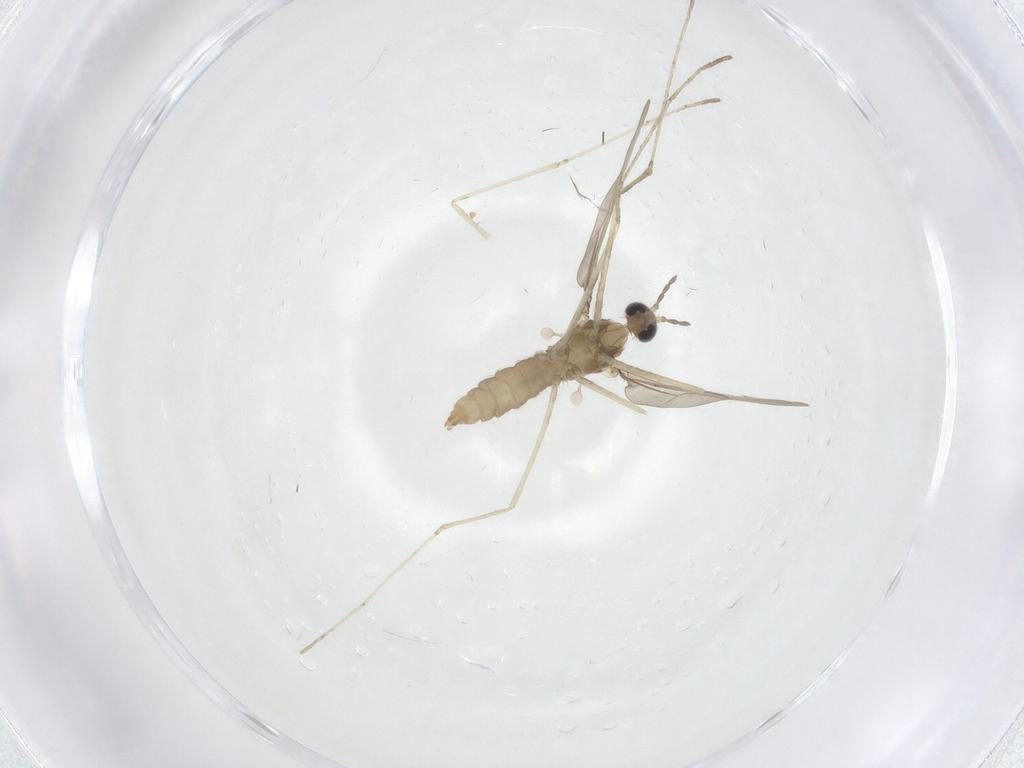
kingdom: Animalia
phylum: Arthropoda
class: Insecta
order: Diptera
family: Cecidomyiidae
